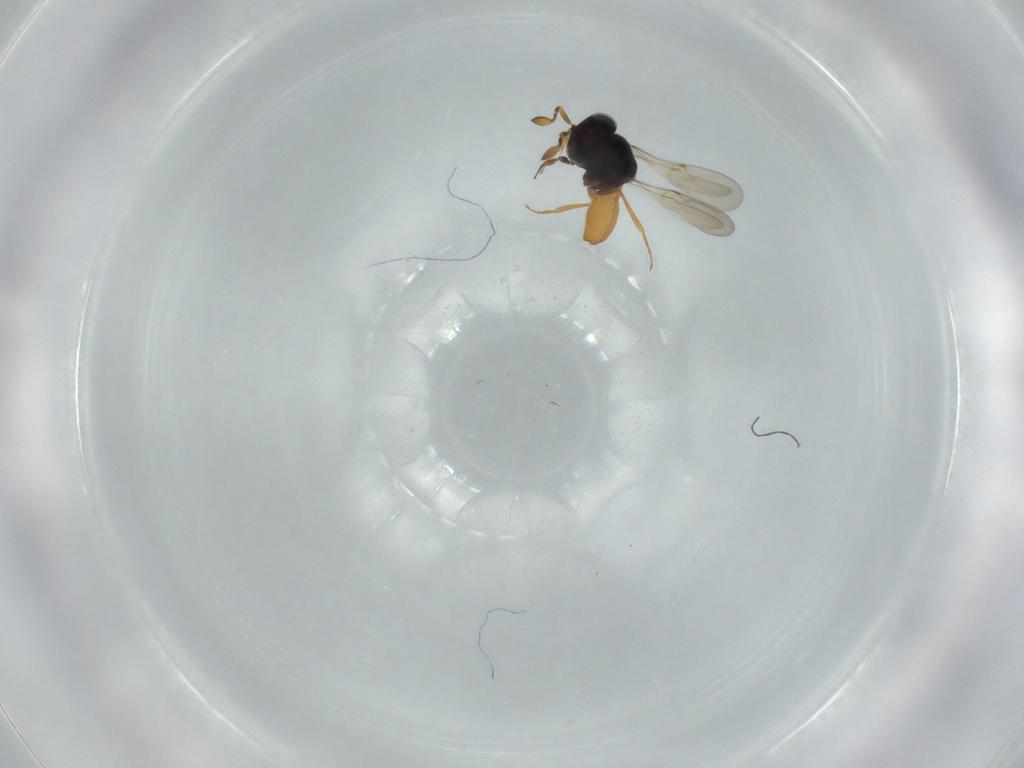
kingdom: Animalia
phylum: Arthropoda
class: Insecta
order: Hymenoptera
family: Scelionidae
